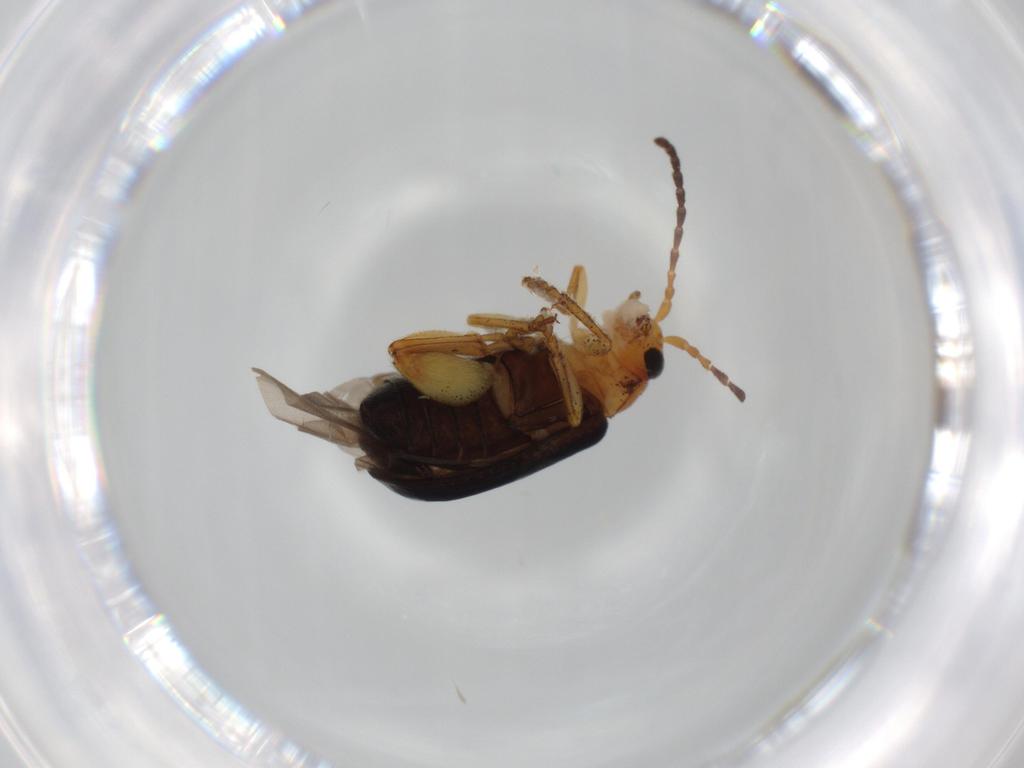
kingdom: Animalia
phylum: Arthropoda
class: Insecta
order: Coleoptera
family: Chrysomelidae
